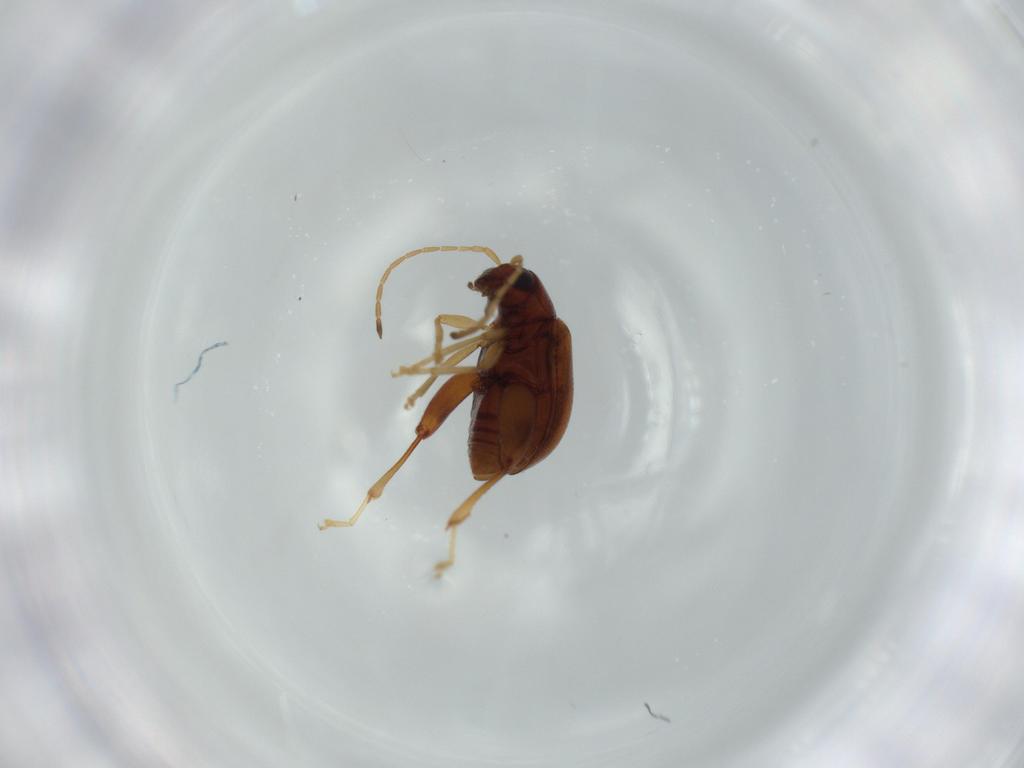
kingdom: Animalia
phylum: Arthropoda
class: Insecta
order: Coleoptera
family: Chrysomelidae
